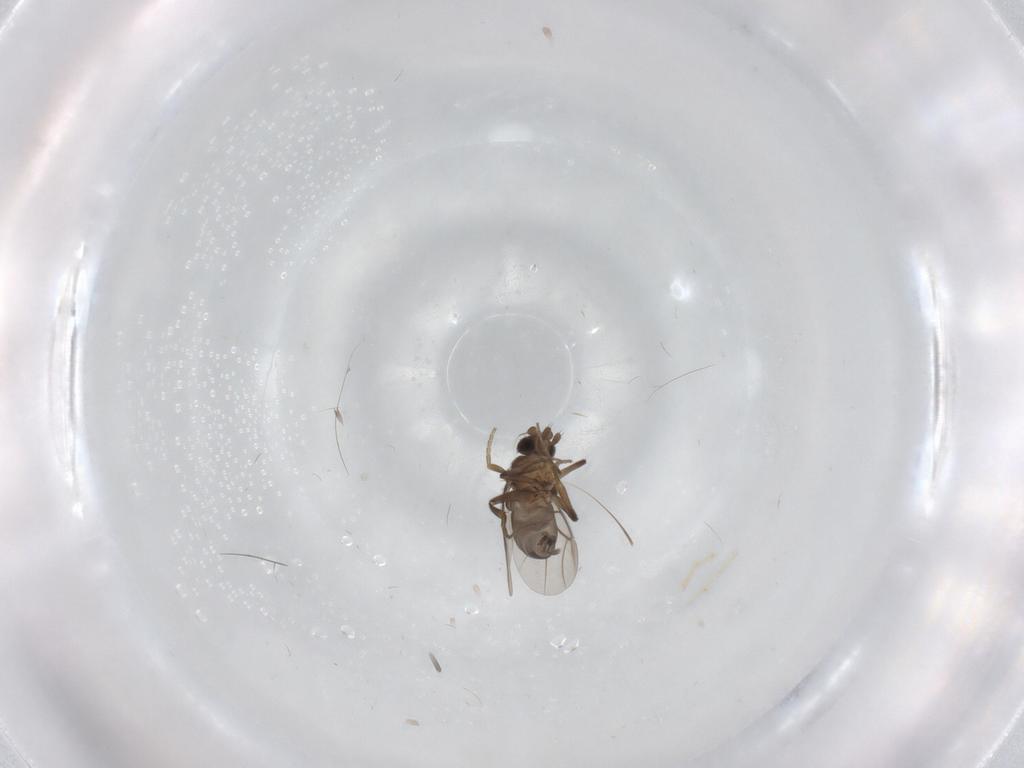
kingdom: Animalia
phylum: Arthropoda
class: Insecta
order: Diptera
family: Phoridae
